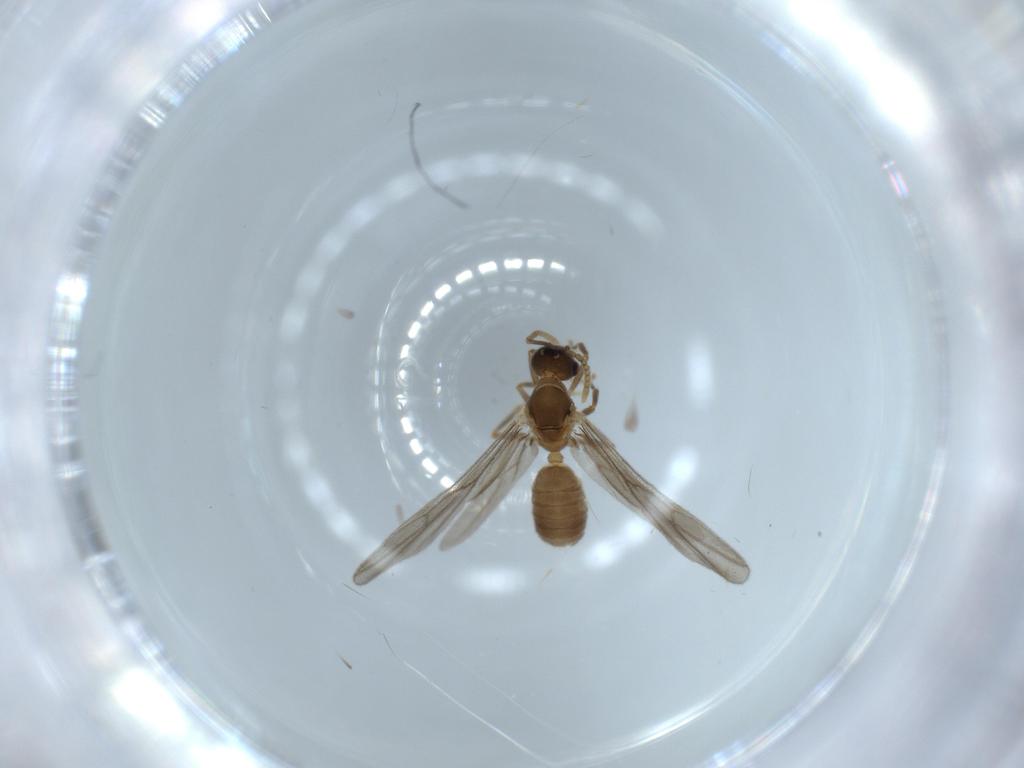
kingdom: Animalia
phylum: Arthropoda
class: Insecta
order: Hymenoptera
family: Formicidae
